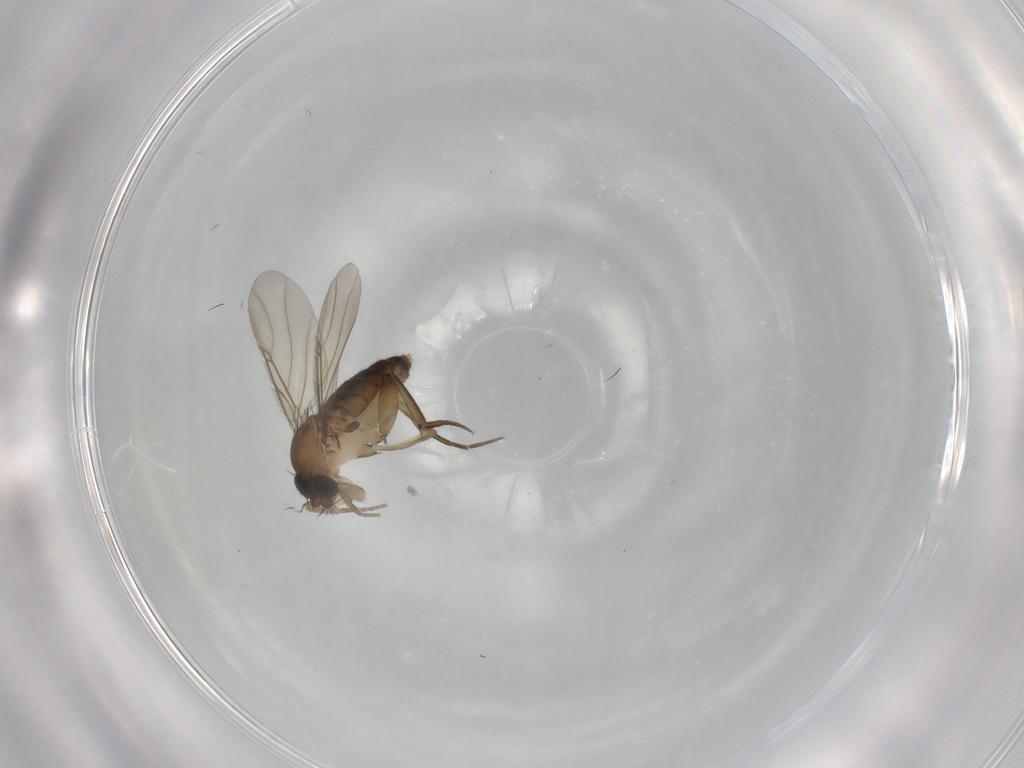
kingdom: Animalia
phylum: Arthropoda
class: Insecta
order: Diptera
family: Phoridae
